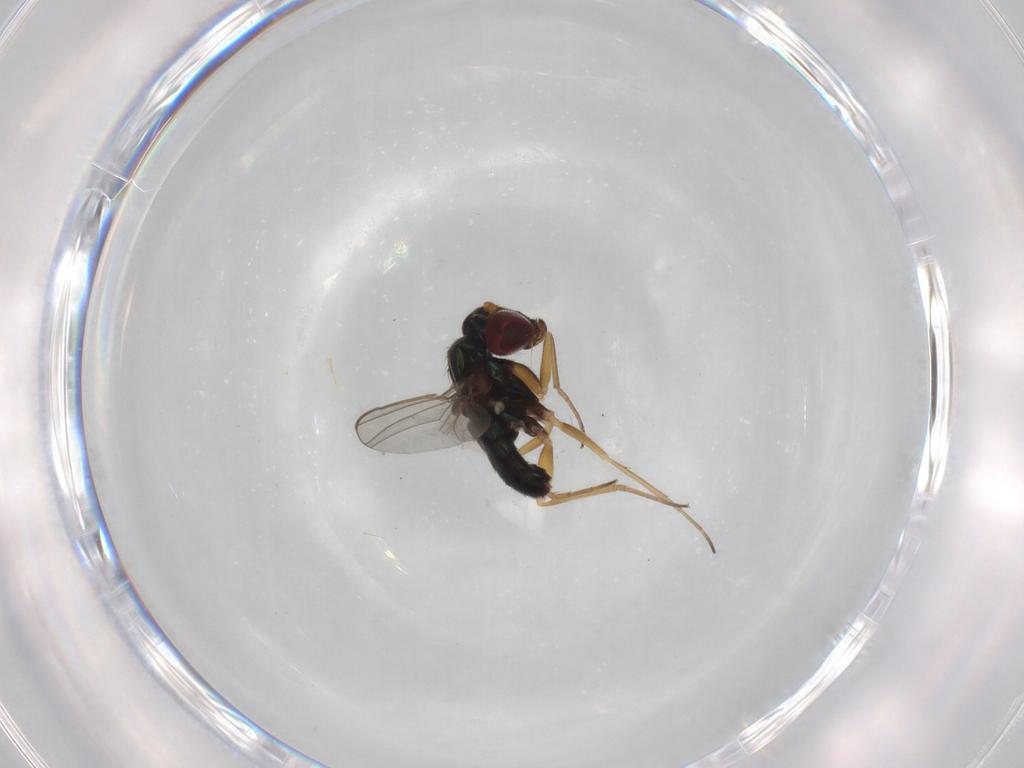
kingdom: Animalia
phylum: Arthropoda
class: Insecta
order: Diptera
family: Dolichopodidae
